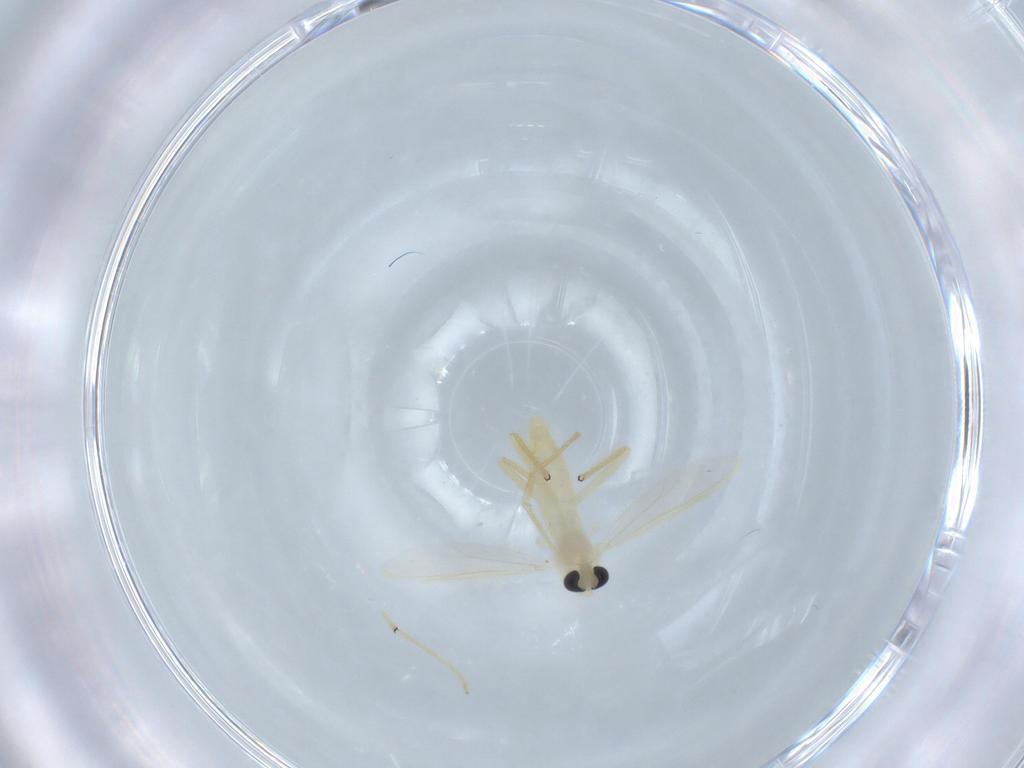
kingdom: Animalia
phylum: Arthropoda
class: Insecta
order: Diptera
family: Chironomidae
